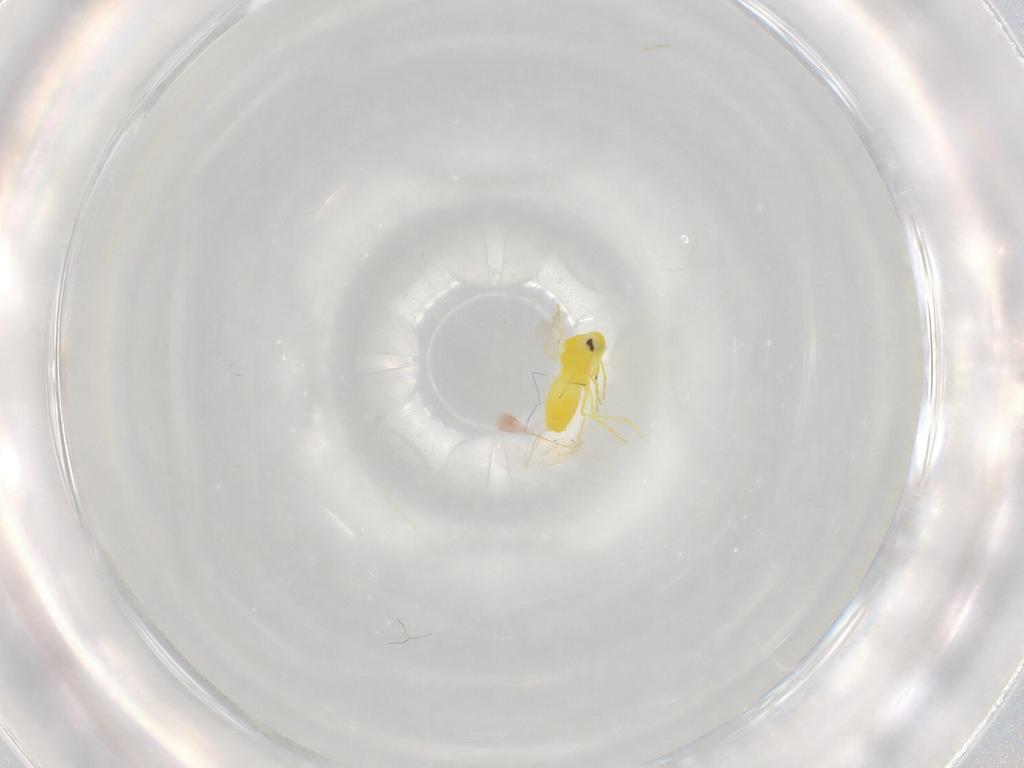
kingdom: Animalia
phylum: Arthropoda
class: Insecta
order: Hemiptera
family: Aleyrodidae
